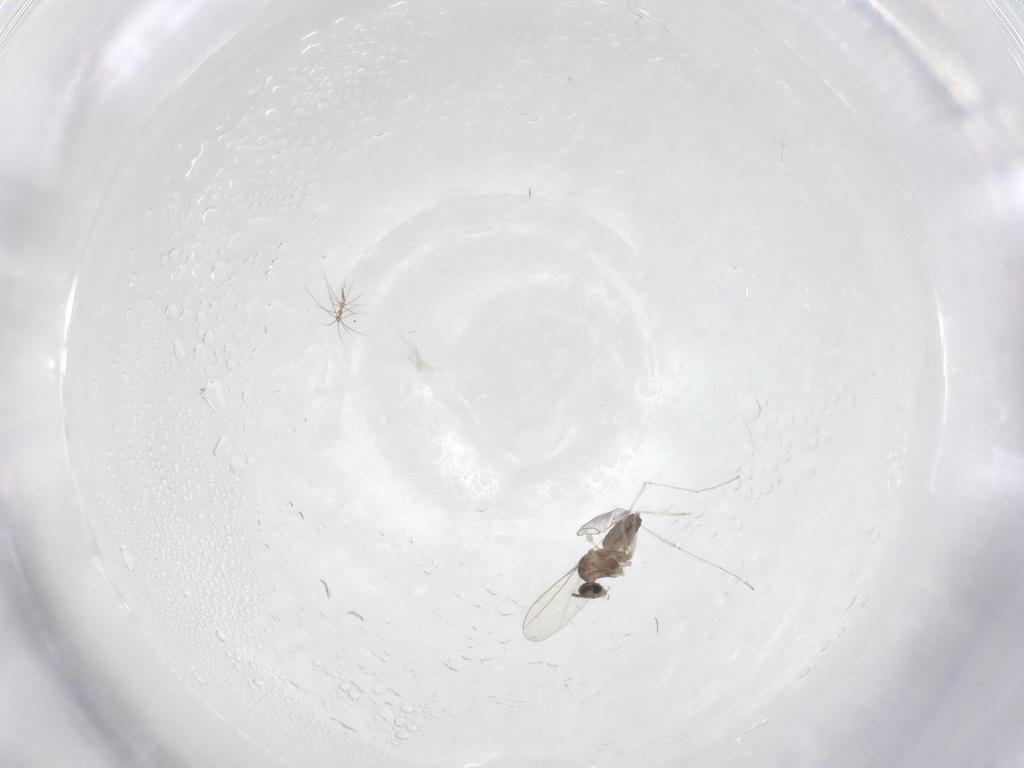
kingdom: Animalia
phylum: Arthropoda
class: Insecta
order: Diptera
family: Chironomidae
